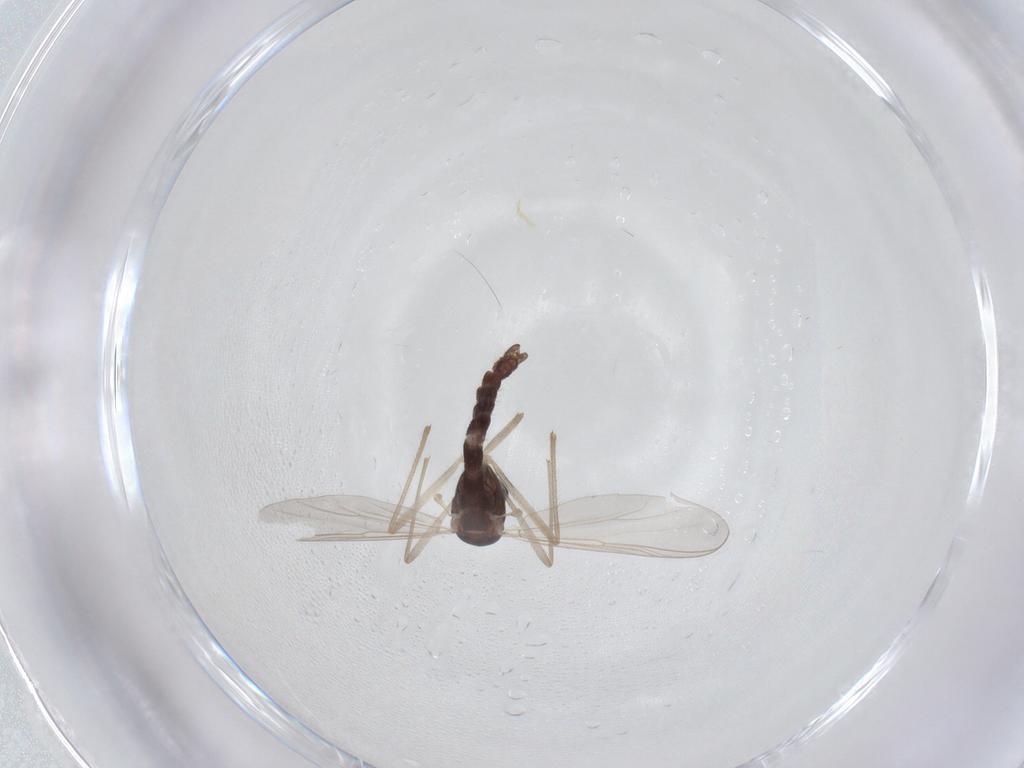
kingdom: Animalia
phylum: Arthropoda
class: Insecta
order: Diptera
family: Chironomidae
